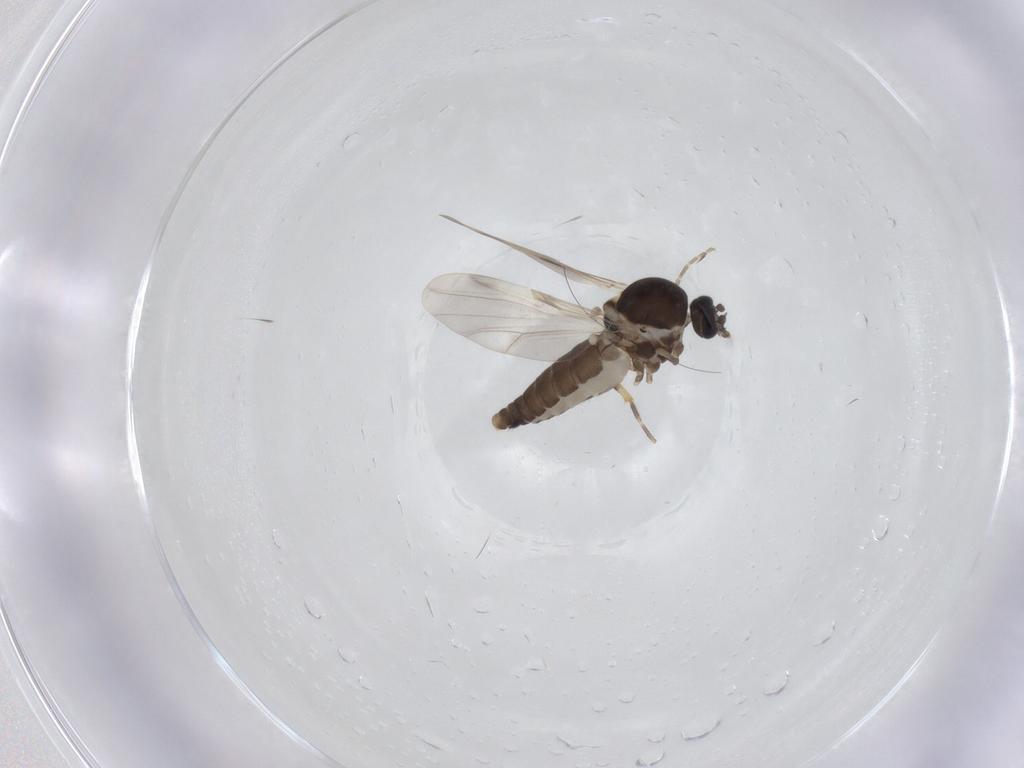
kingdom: Animalia
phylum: Arthropoda
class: Insecta
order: Diptera
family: Ceratopogonidae
